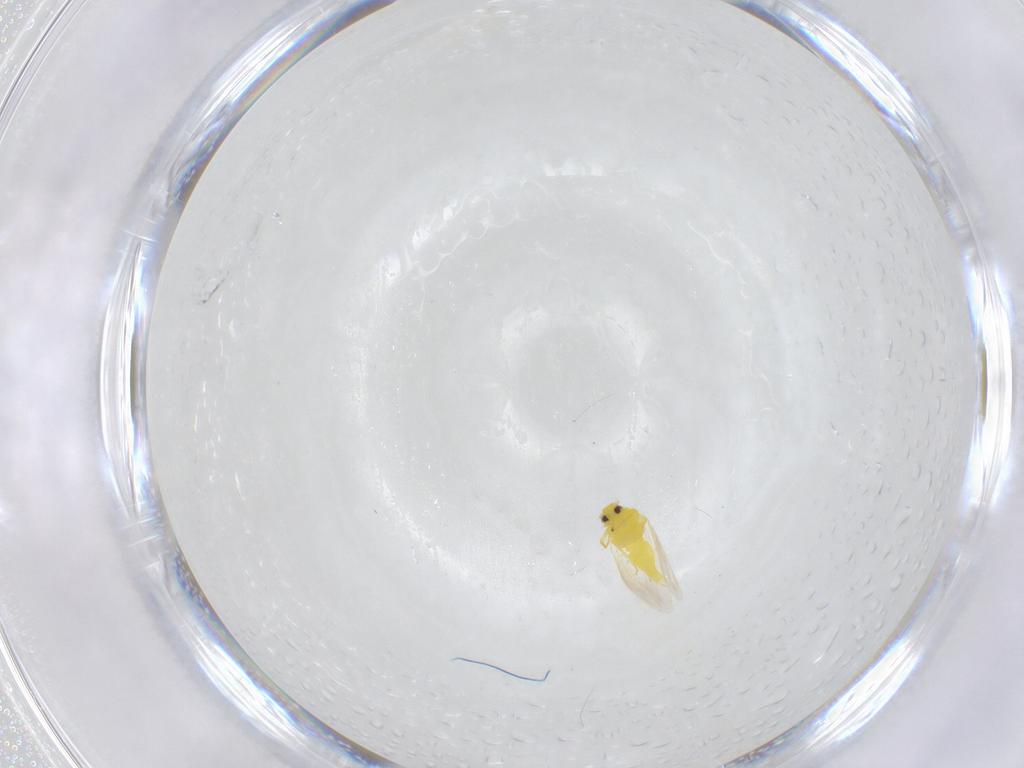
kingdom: Animalia
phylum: Arthropoda
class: Insecta
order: Hemiptera
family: Aleyrodidae
